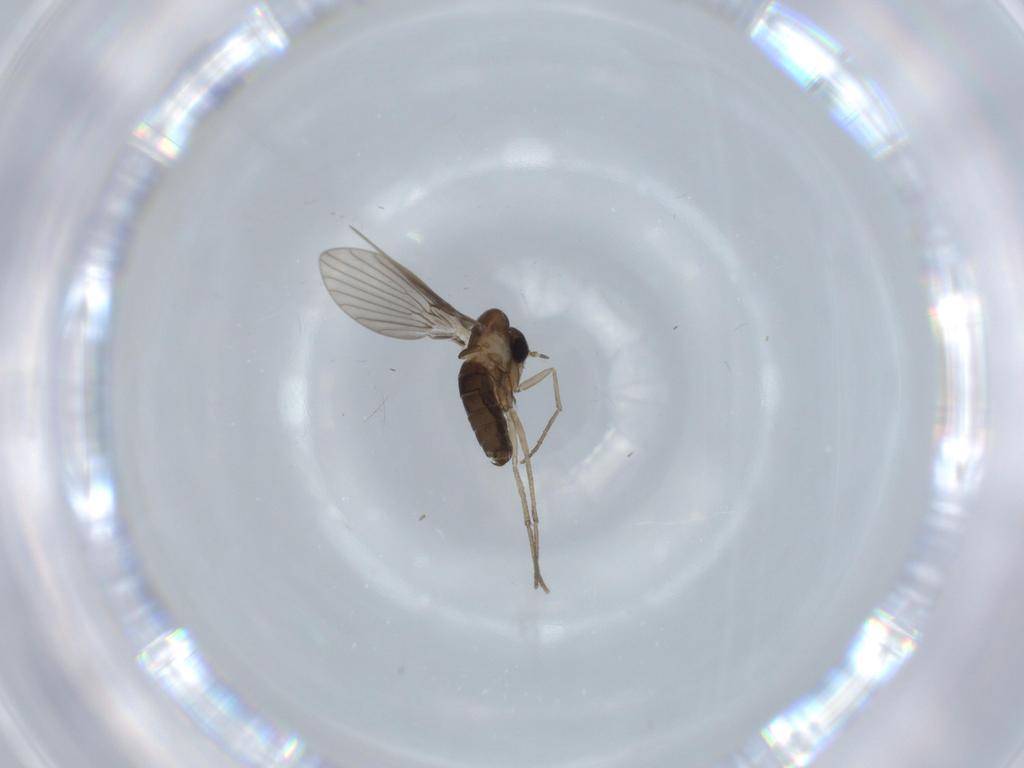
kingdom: Animalia
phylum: Arthropoda
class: Insecta
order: Diptera
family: Psychodidae
